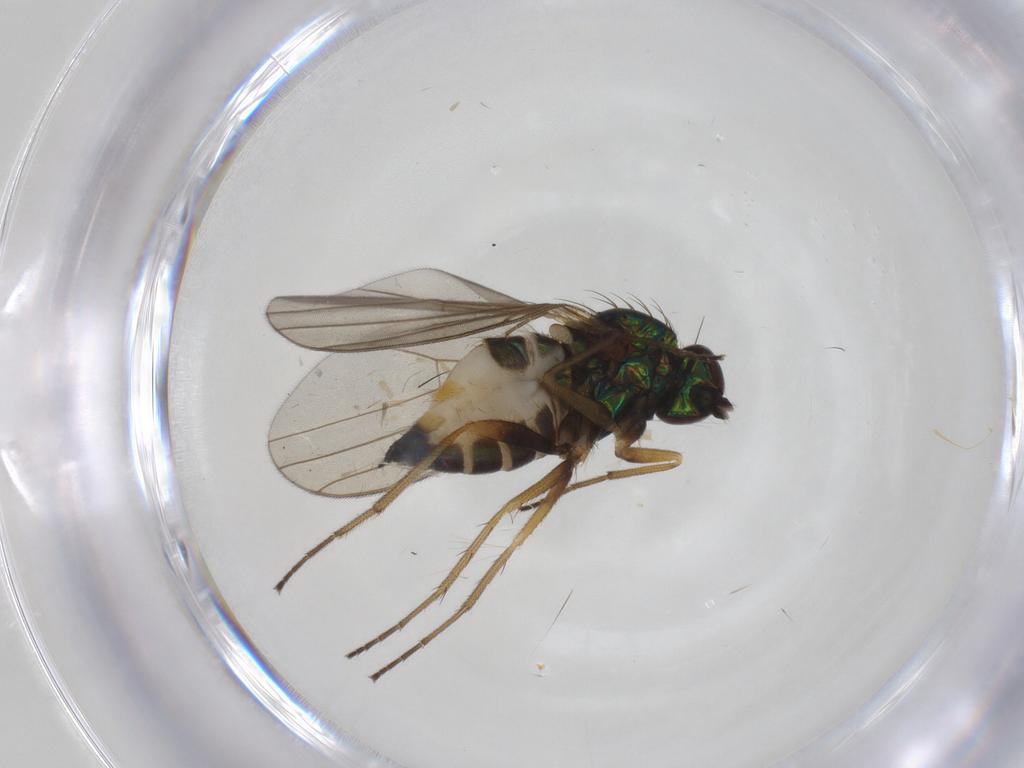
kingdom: Animalia
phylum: Arthropoda
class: Insecta
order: Diptera
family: Dolichopodidae
